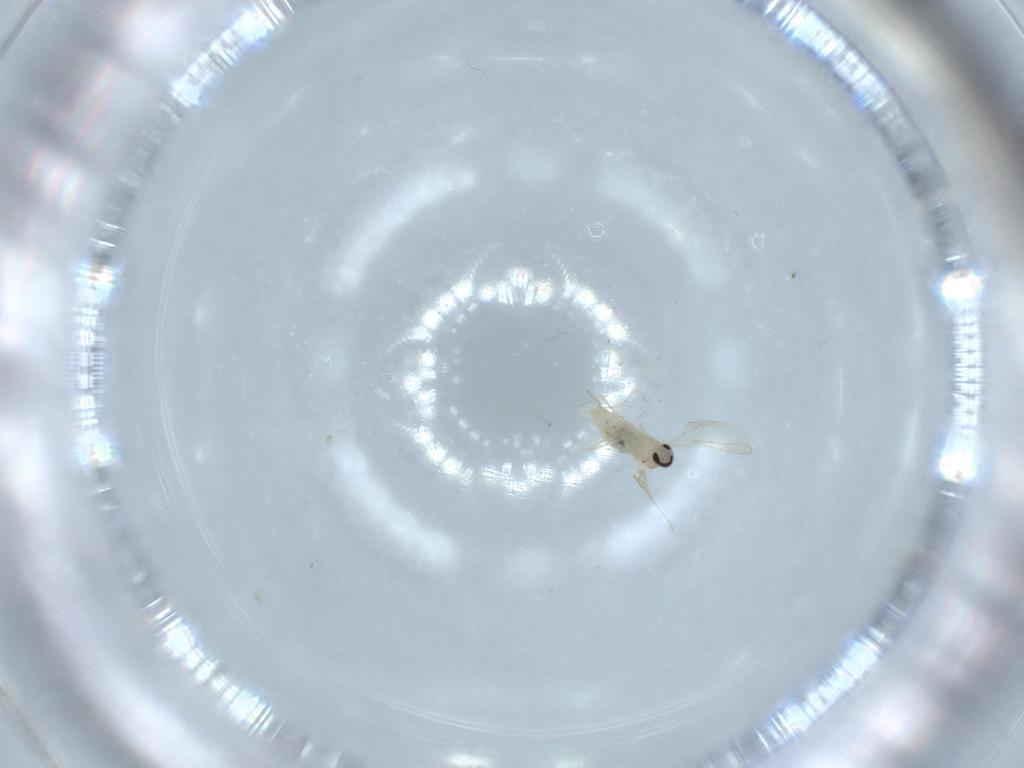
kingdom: Animalia
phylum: Arthropoda
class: Insecta
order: Diptera
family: Cecidomyiidae
